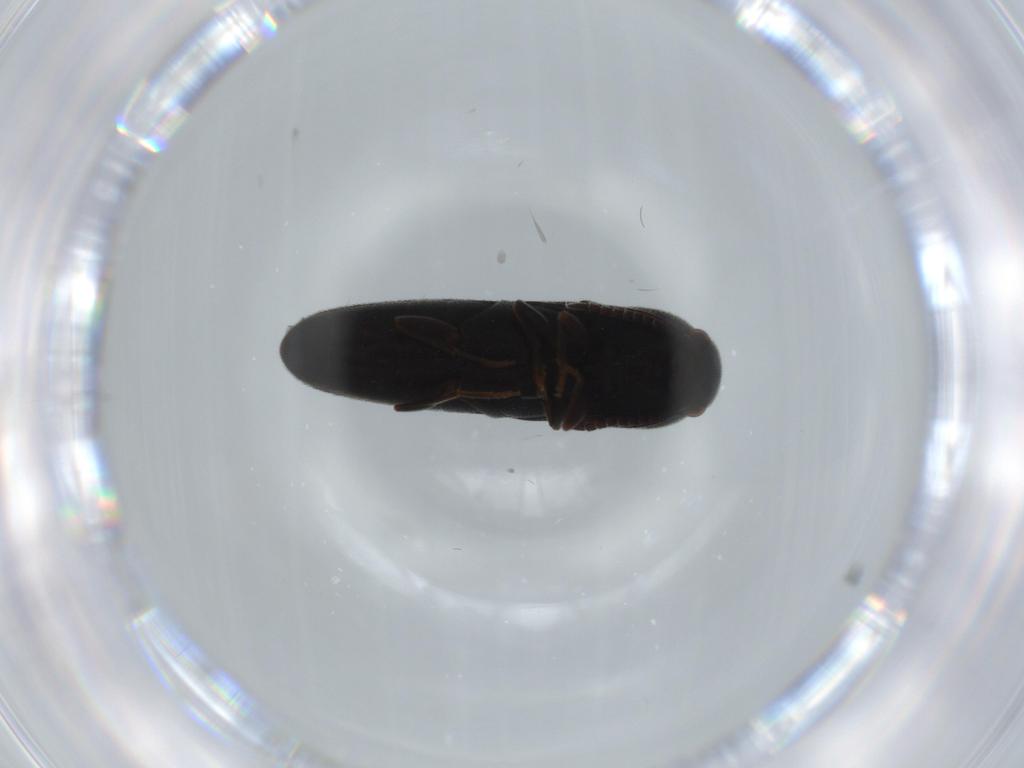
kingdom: Animalia
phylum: Arthropoda
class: Insecta
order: Coleoptera
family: Eucnemidae
